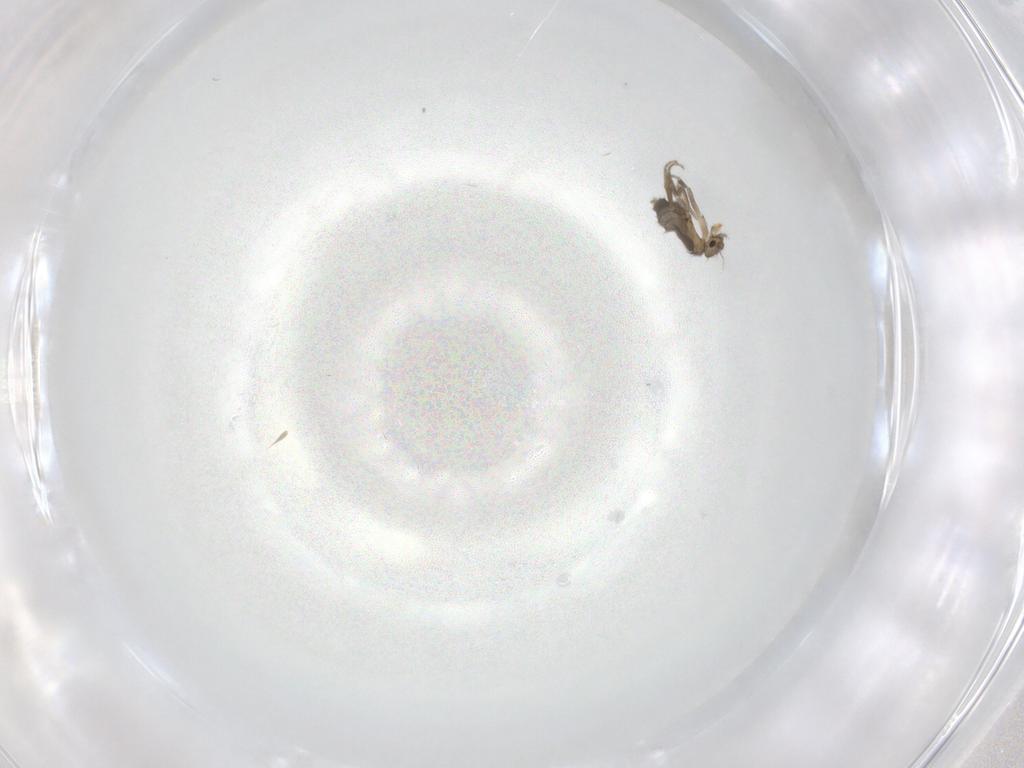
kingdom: Animalia
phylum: Arthropoda
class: Insecta
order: Diptera
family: Phoridae
